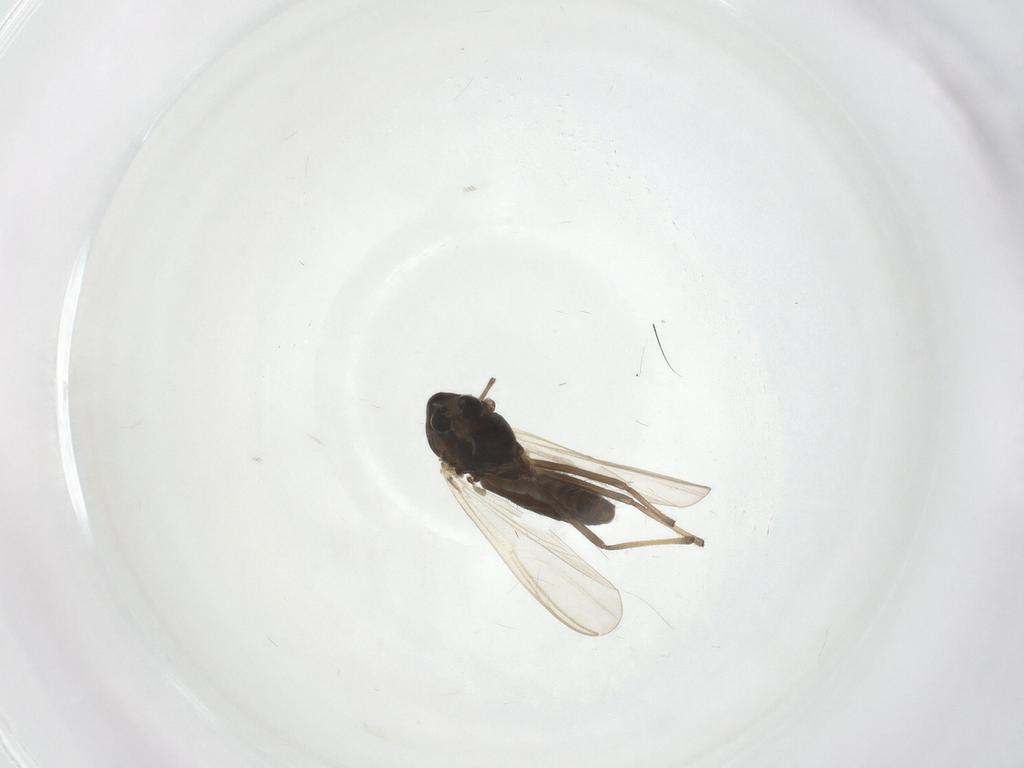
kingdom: Animalia
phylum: Arthropoda
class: Insecta
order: Diptera
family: Chironomidae
